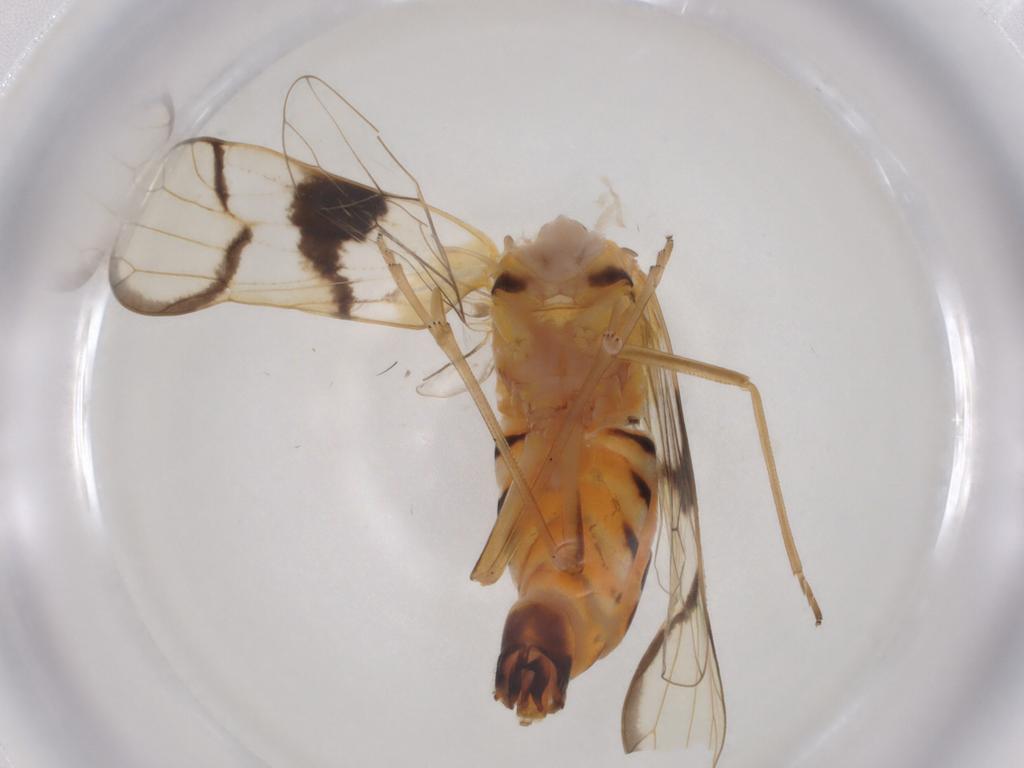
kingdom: Animalia
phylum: Arthropoda
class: Insecta
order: Hemiptera
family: Delphacidae
